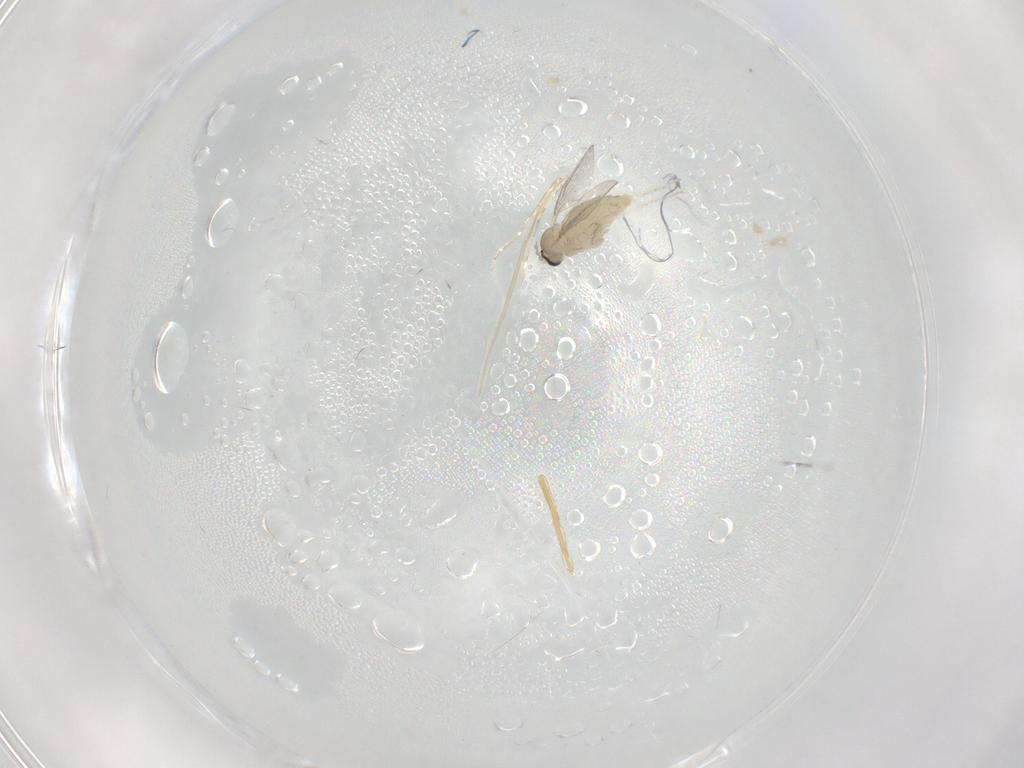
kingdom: Animalia
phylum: Arthropoda
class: Insecta
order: Diptera
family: Cecidomyiidae
